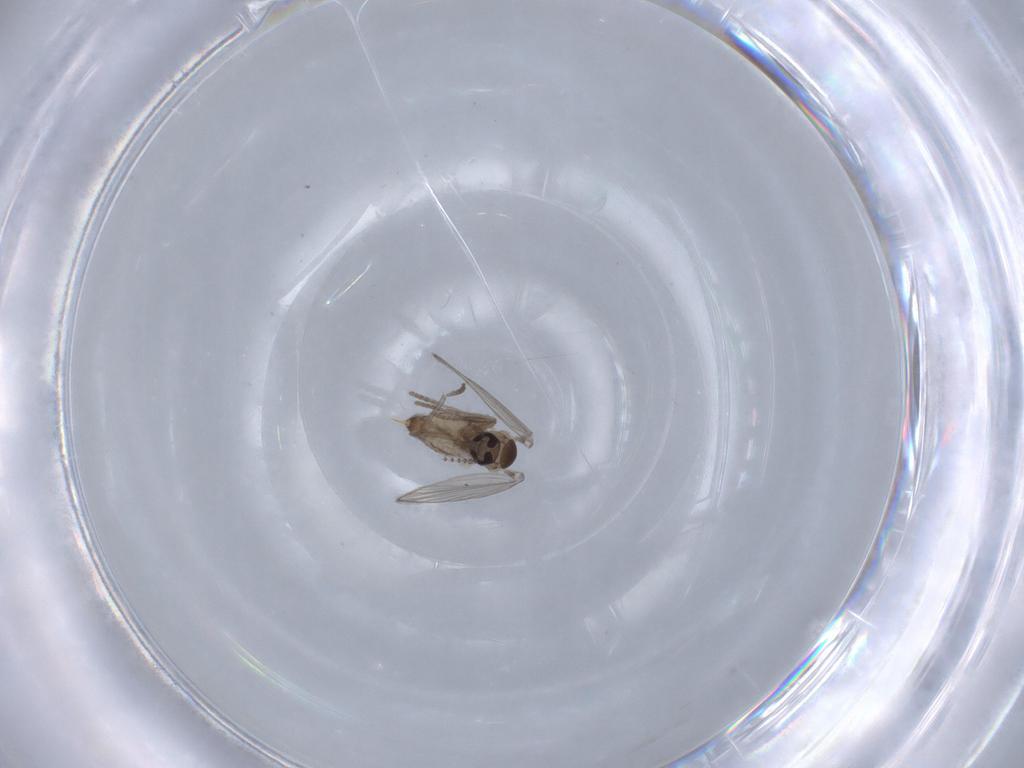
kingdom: Animalia
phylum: Arthropoda
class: Insecta
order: Diptera
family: Psychodidae
